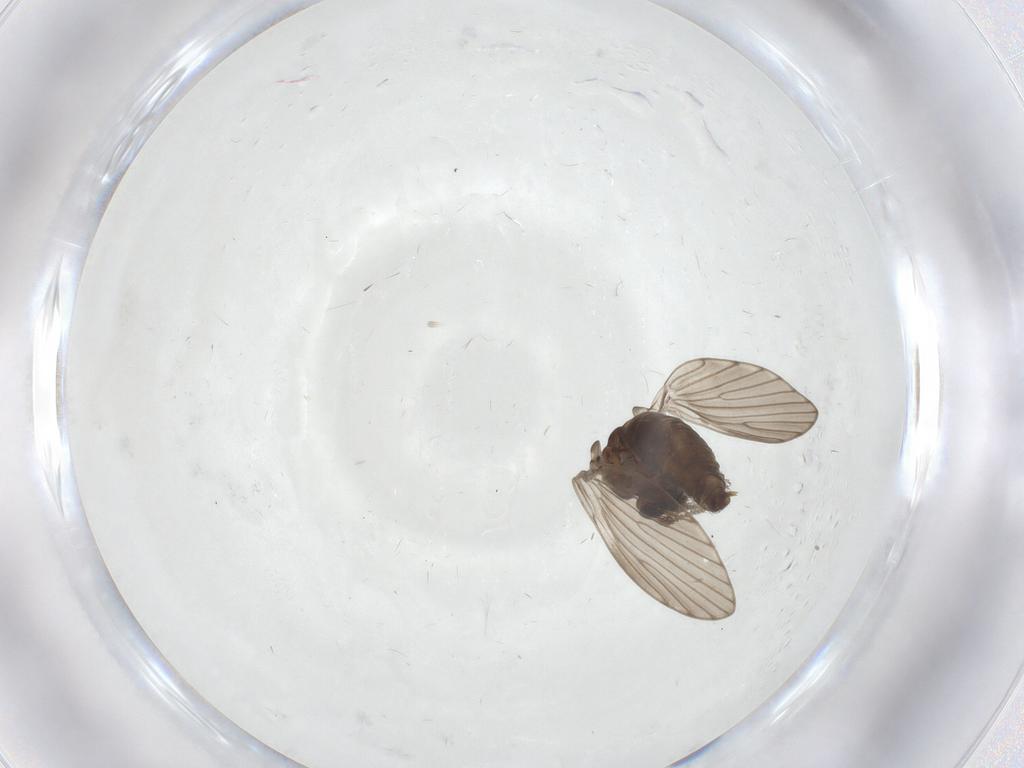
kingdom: Animalia
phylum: Arthropoda
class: Insecta
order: Diptera
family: Psychodidae
